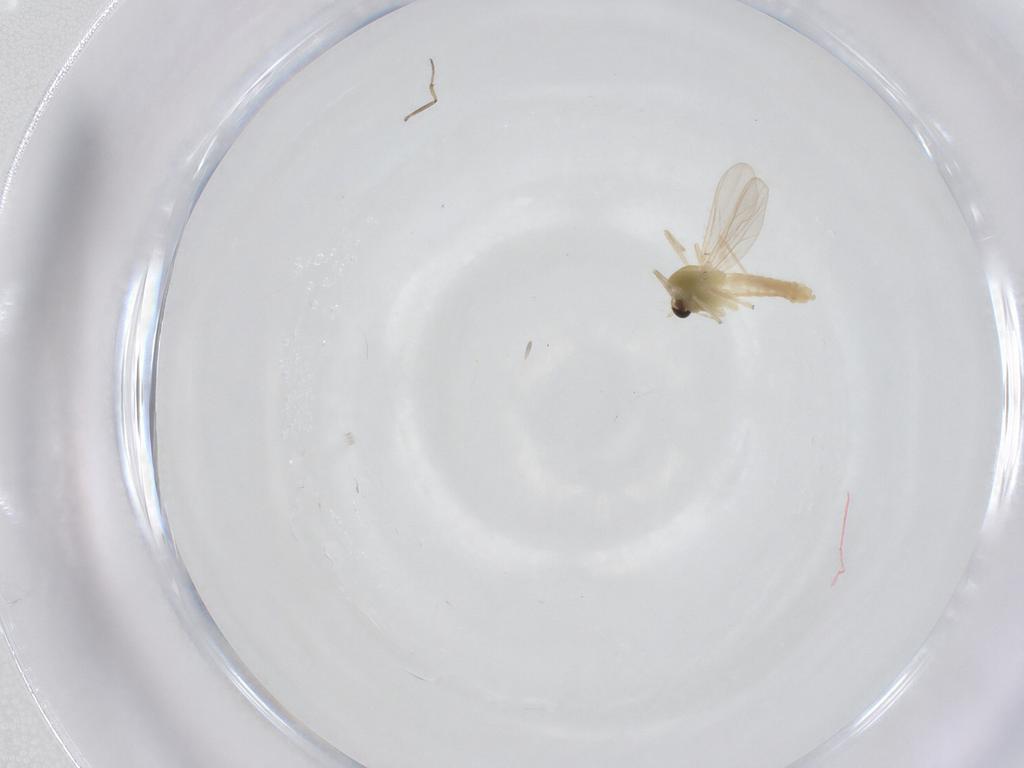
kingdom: Animalia
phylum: Arthropoda
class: Insecta
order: Diptera
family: Ceratopogonidae
